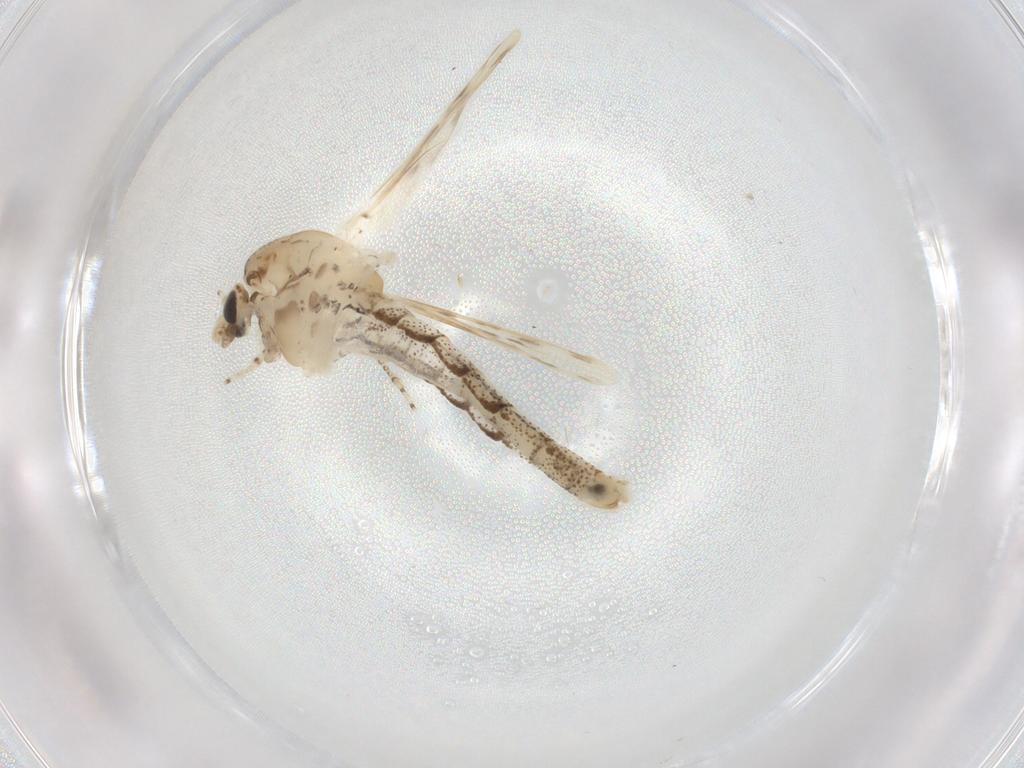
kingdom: Animalia
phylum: Arthropoda
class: Insecta
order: Diptera
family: Chaoboridae
